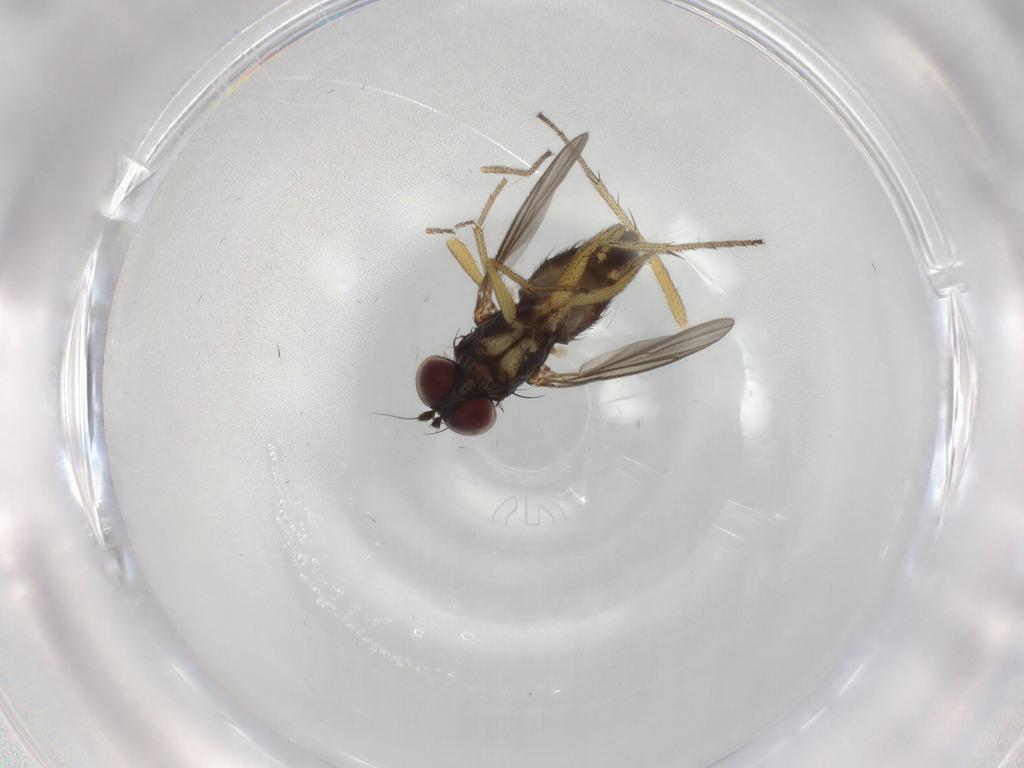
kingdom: Animalia
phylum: Arthropoda
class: Insecta
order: Diptera
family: Dolichopodidae
